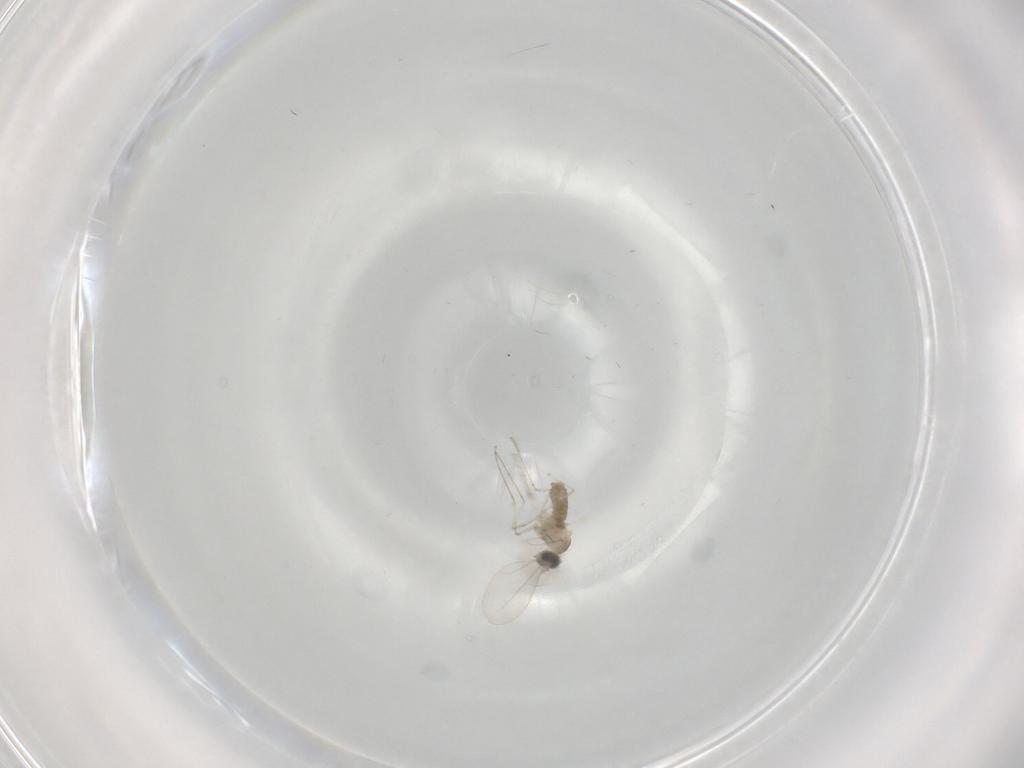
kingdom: Animalia
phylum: Arthropoda
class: Insecta
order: Diptera
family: Cecidomyiidae
